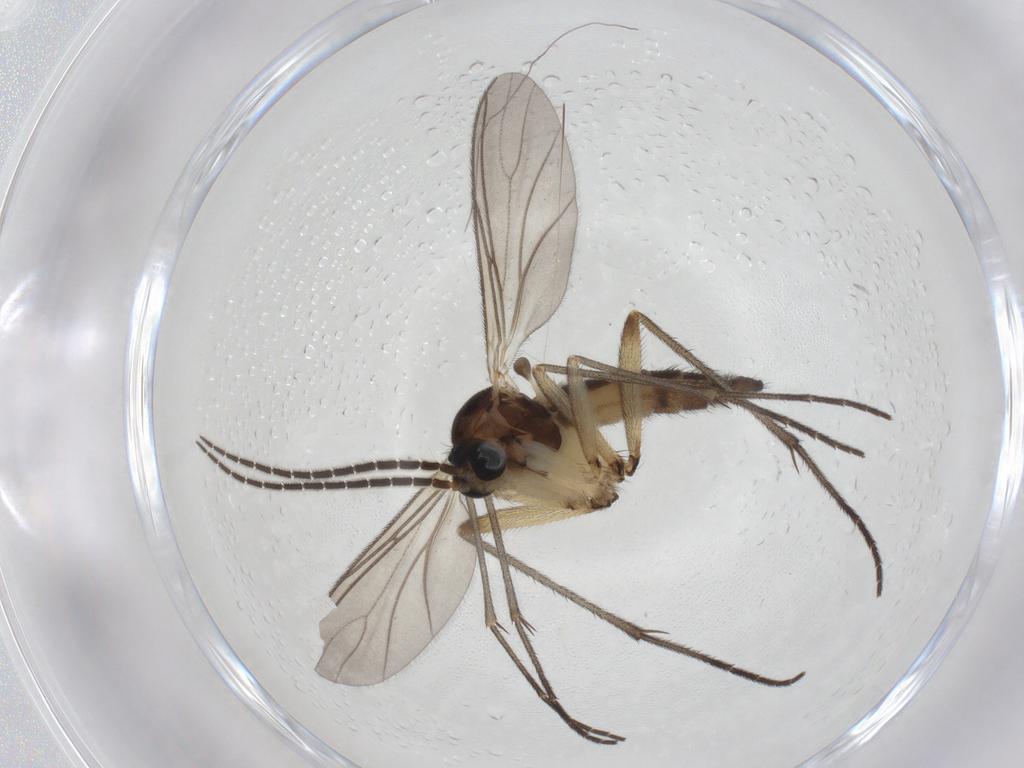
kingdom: Animalia
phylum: Arthropoda
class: Insecta
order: Diptera
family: Sciaridae
